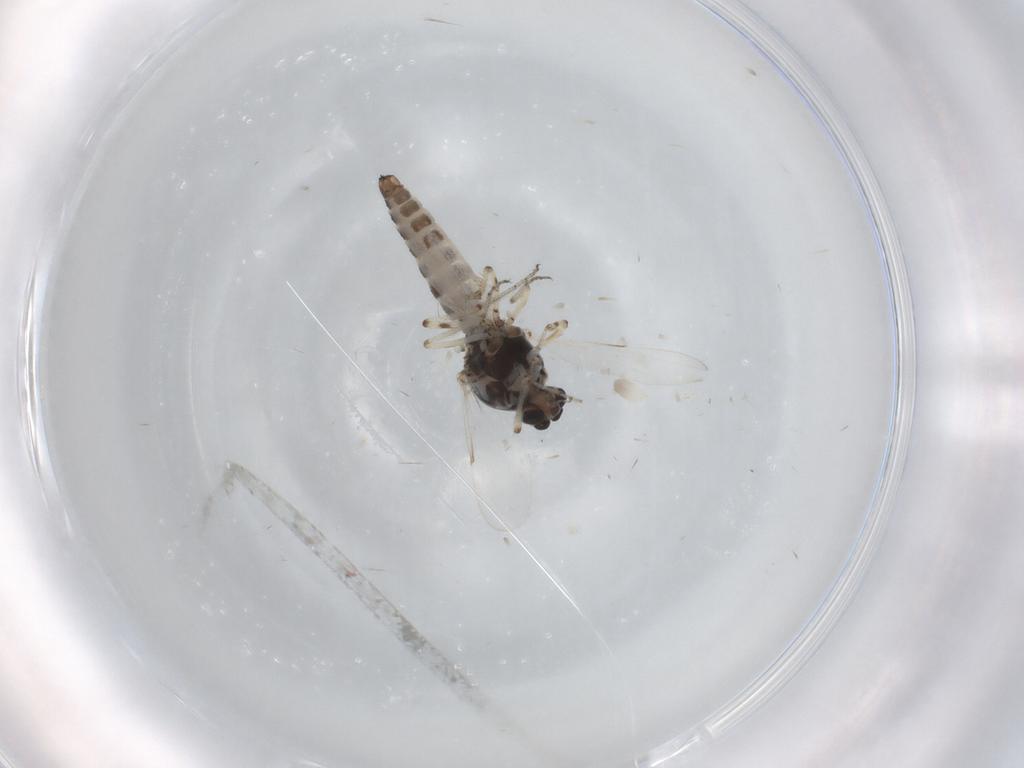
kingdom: Animalia
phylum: Arthropoda
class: Insecta
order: Diptera
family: Ceratopogonidae
